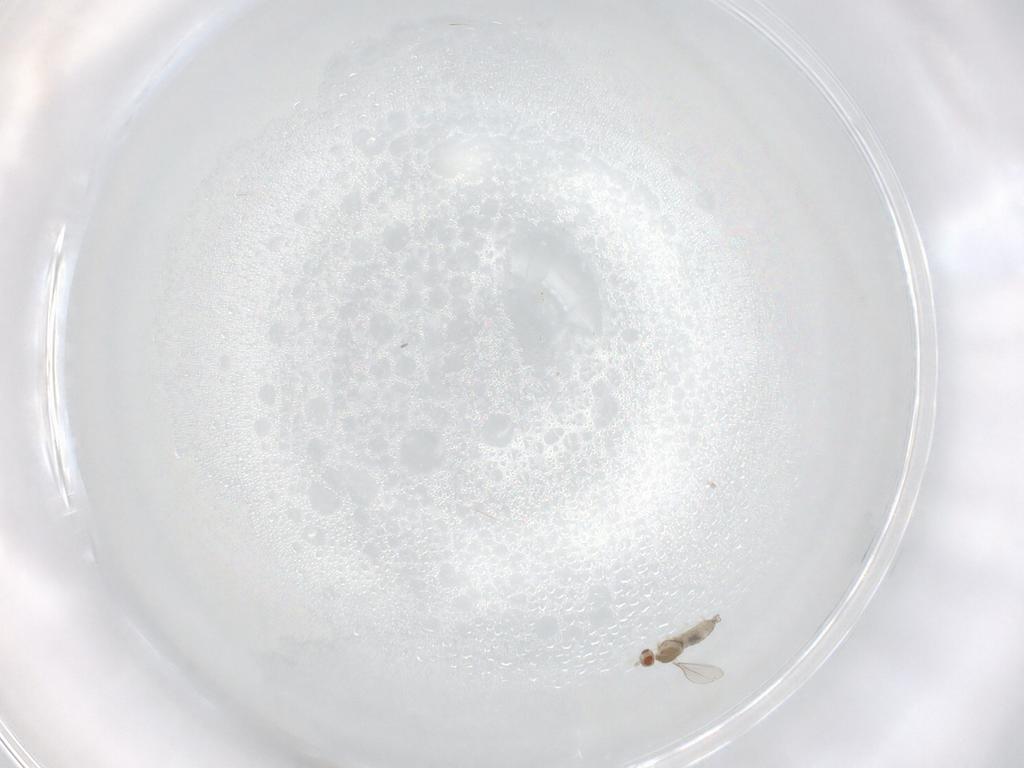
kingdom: Animalia
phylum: Arthropoda
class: Insecta
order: Diptera
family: Cecidomyiidae
